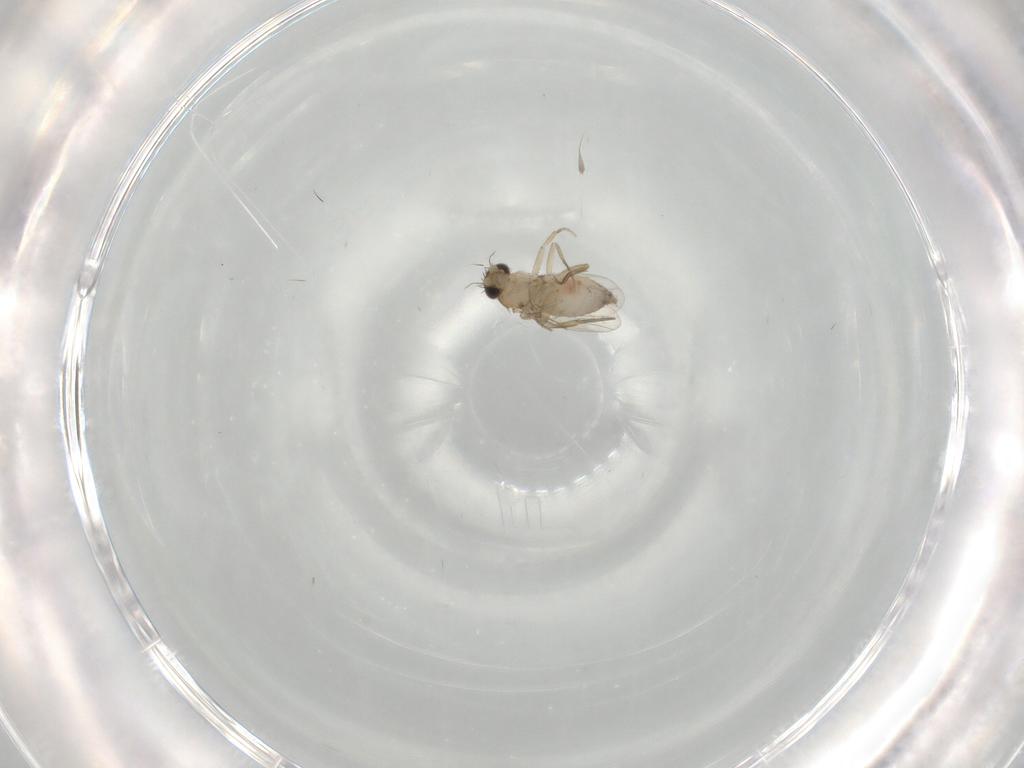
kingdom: Animalia
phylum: Arthropoda
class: Insecta
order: Diptera
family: Phoridae
